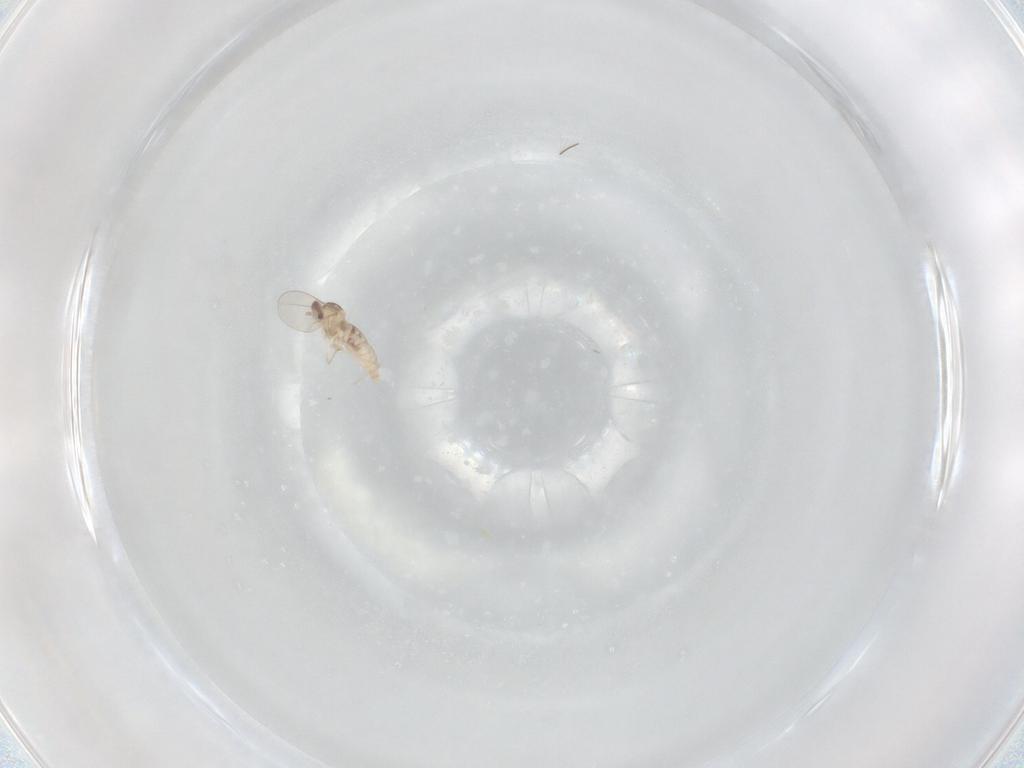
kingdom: Animalia
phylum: Arthropoda
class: Insecta
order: Diptera
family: Cecidomyiidae
